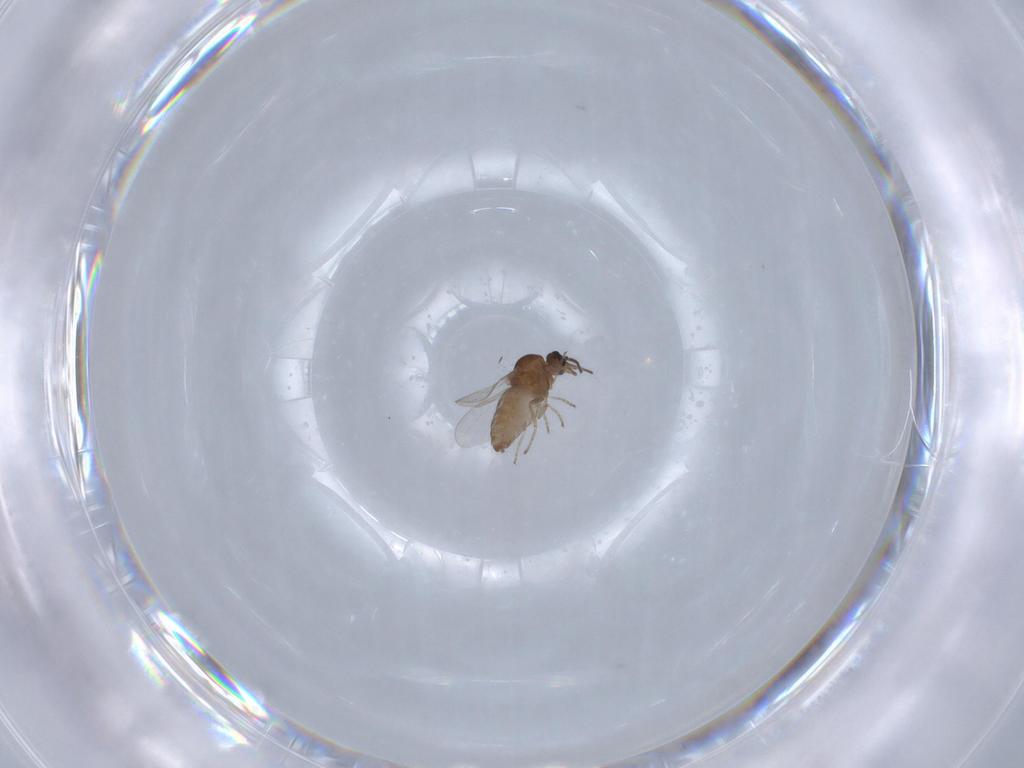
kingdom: Animalia
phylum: Arthropoda
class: Insecta
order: Diptera
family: Ceratopogonidae
